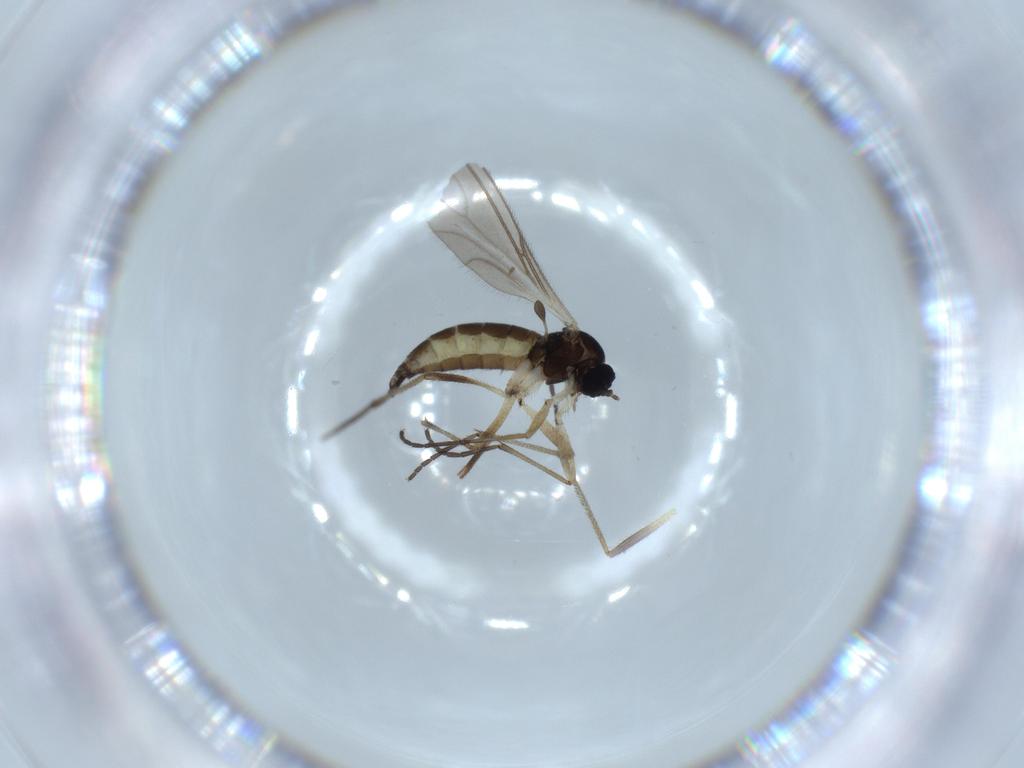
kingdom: Animalia
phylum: Arthropoda
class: Insecta
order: Diptera
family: Sciaridae
